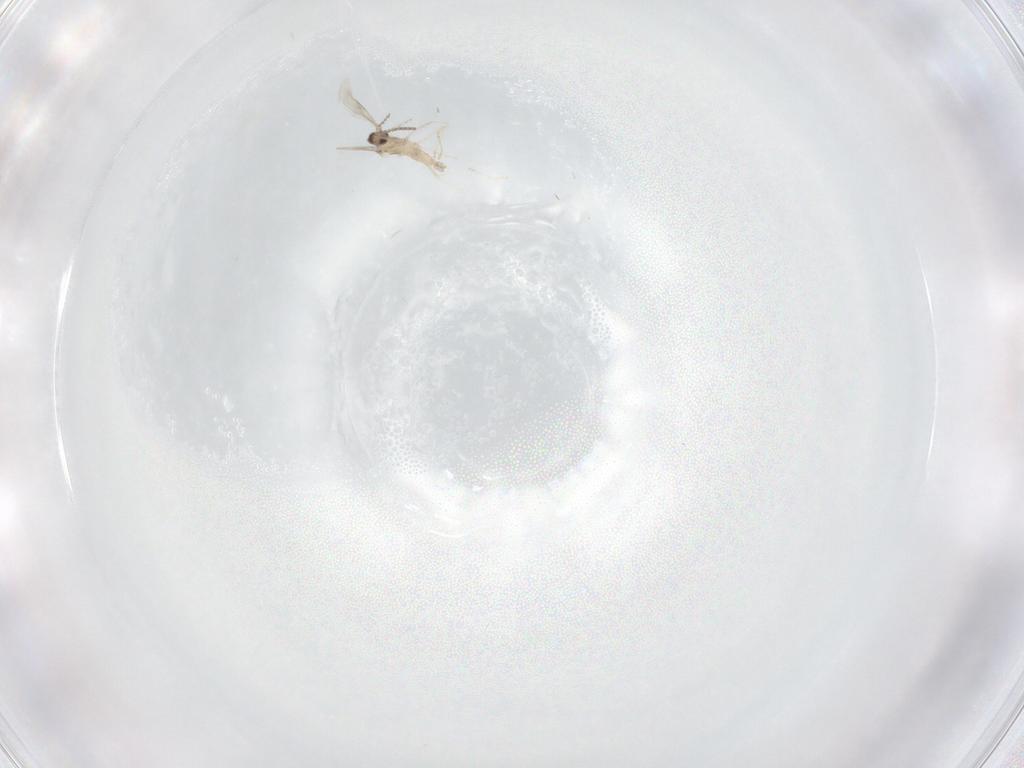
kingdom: Animalia
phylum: Arthropoda
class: Insecta
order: Diptera
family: Cecidomyiidae
